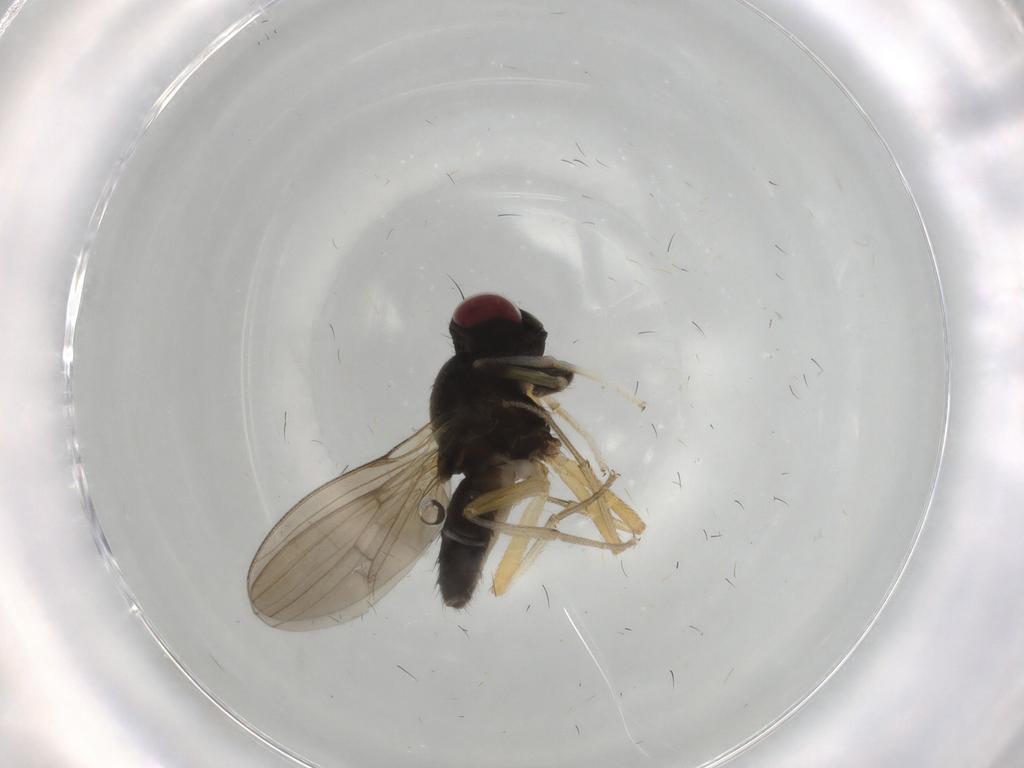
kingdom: Animalia
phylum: Arthropoda
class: Insecta
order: Diptera
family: Lauxaniidae
